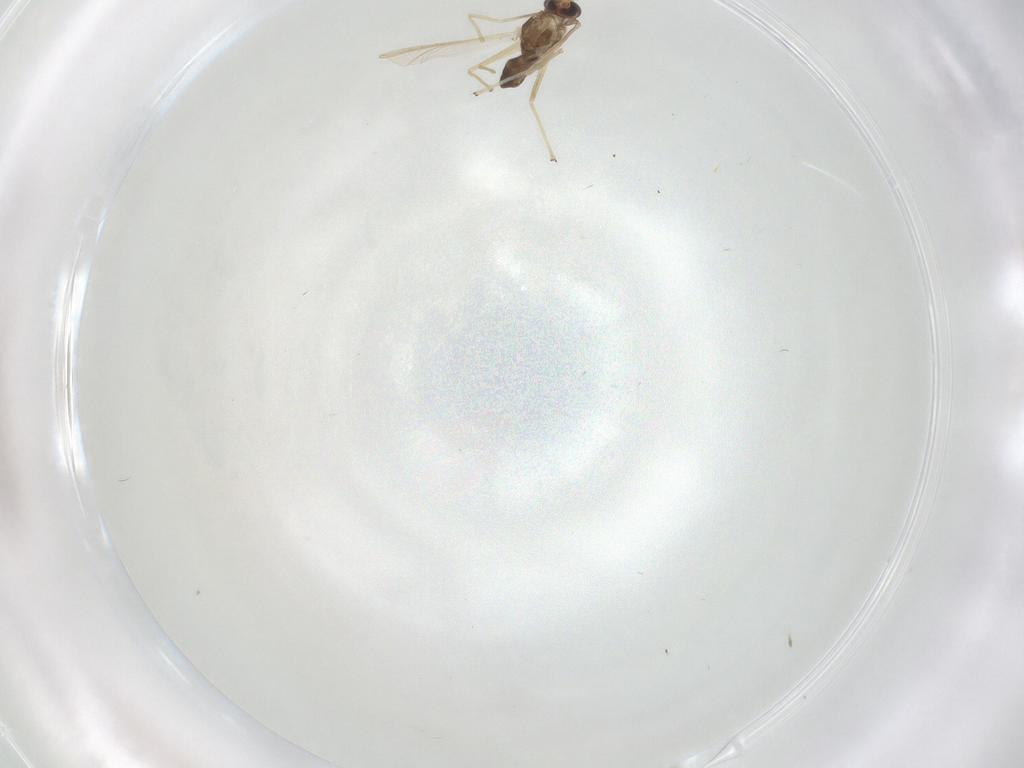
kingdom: Animalia
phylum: Arthropoda
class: Insecta
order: Diptera
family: Chironomidae
